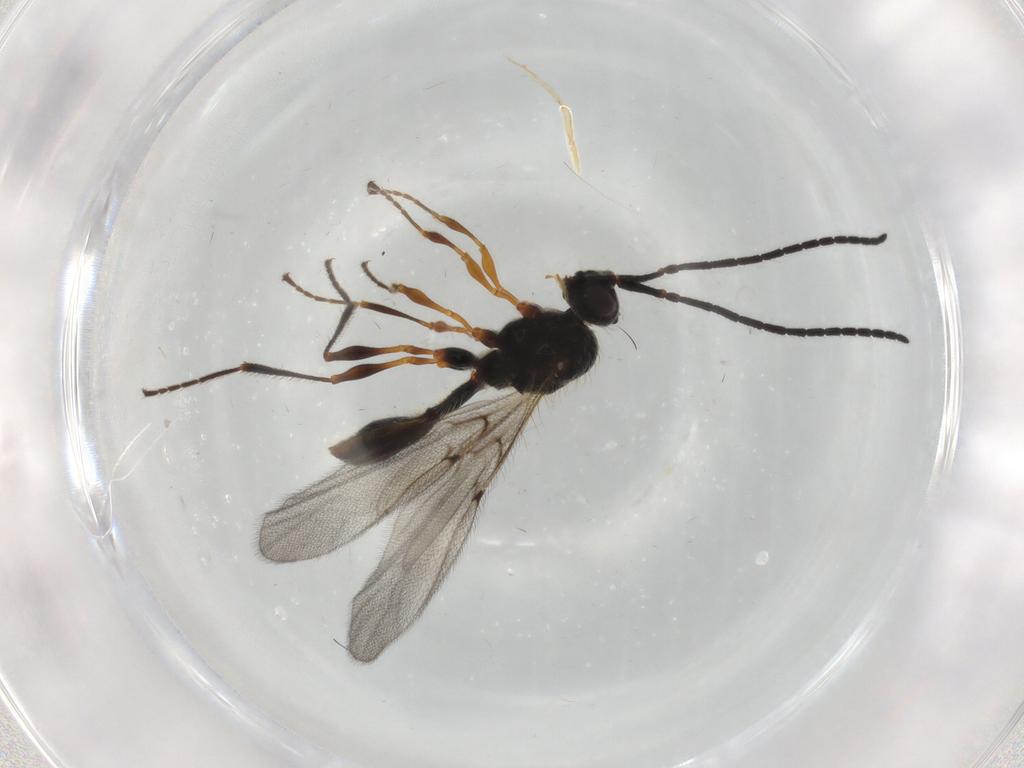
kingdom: Animalia
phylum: Arthropoda
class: Insecta
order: Hymenoptera
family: Diapriidae
